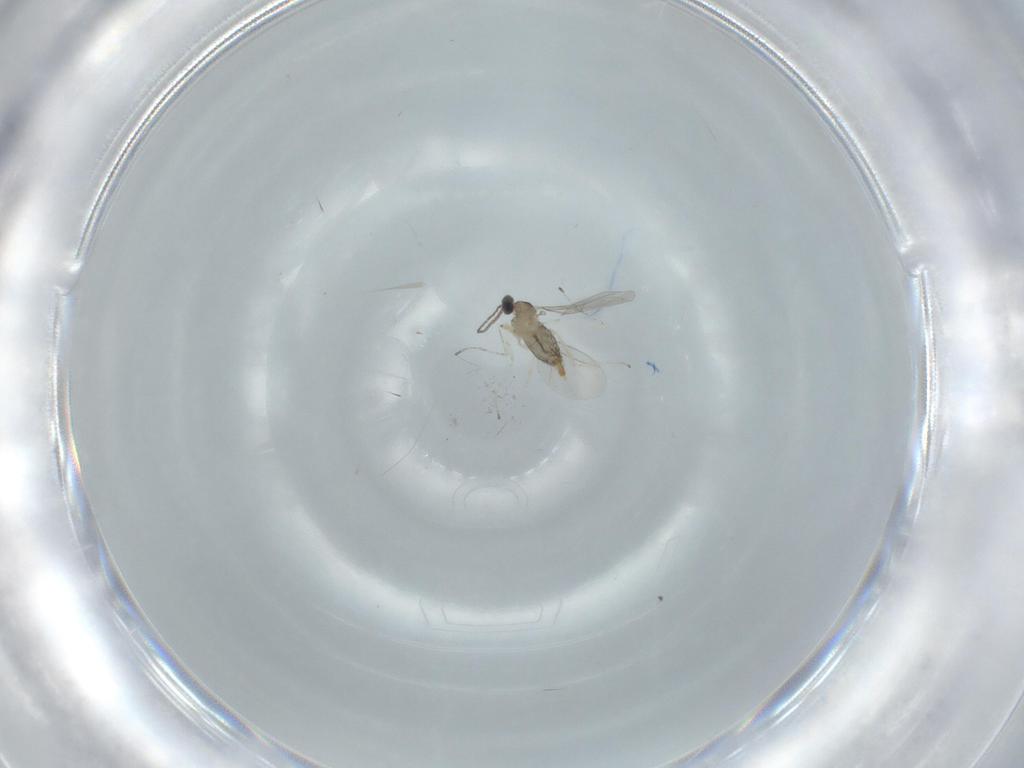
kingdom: Animalia
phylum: Arthropoda
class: Insecta
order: Diptera
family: Cecidomyiidae
